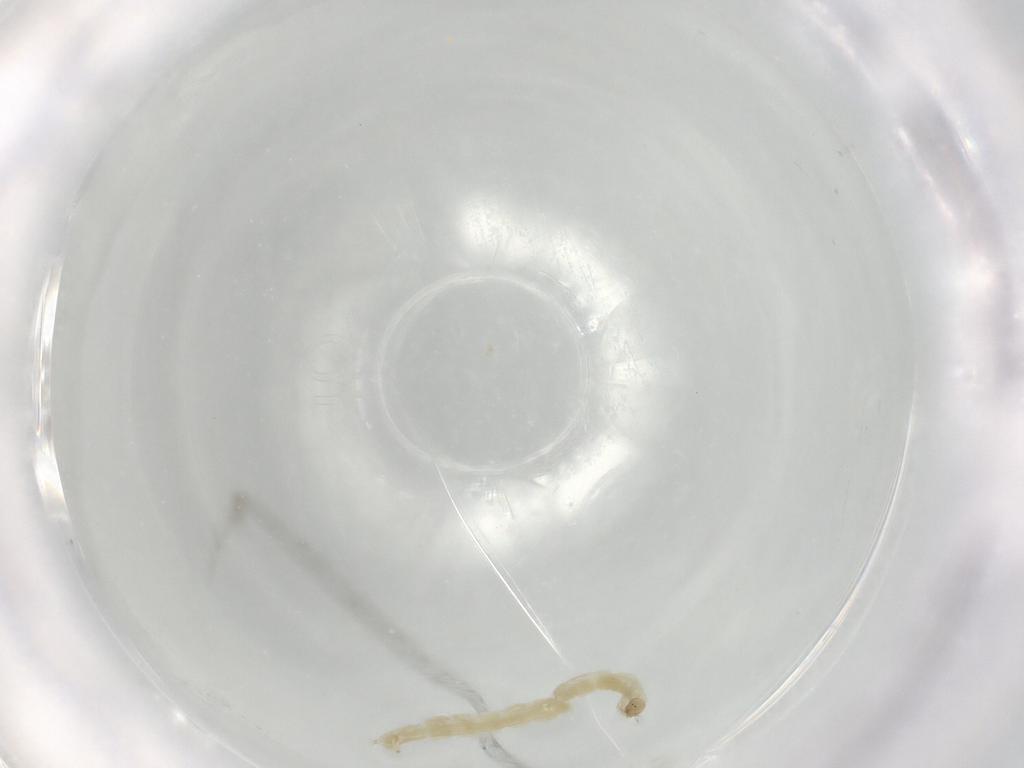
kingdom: Animalia
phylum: Arthropoda
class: Insecta
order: Diptera
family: Chironomidae
